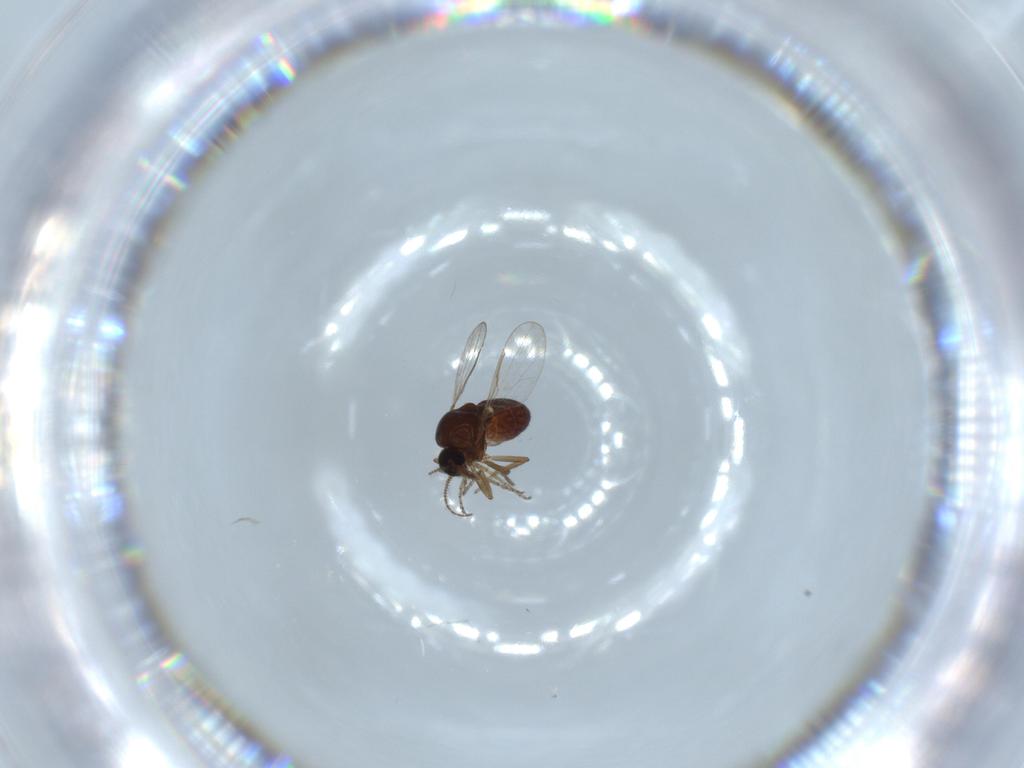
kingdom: Animalia
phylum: Arthropoda
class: Insecta
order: Diptera
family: Ceratopogonidae
